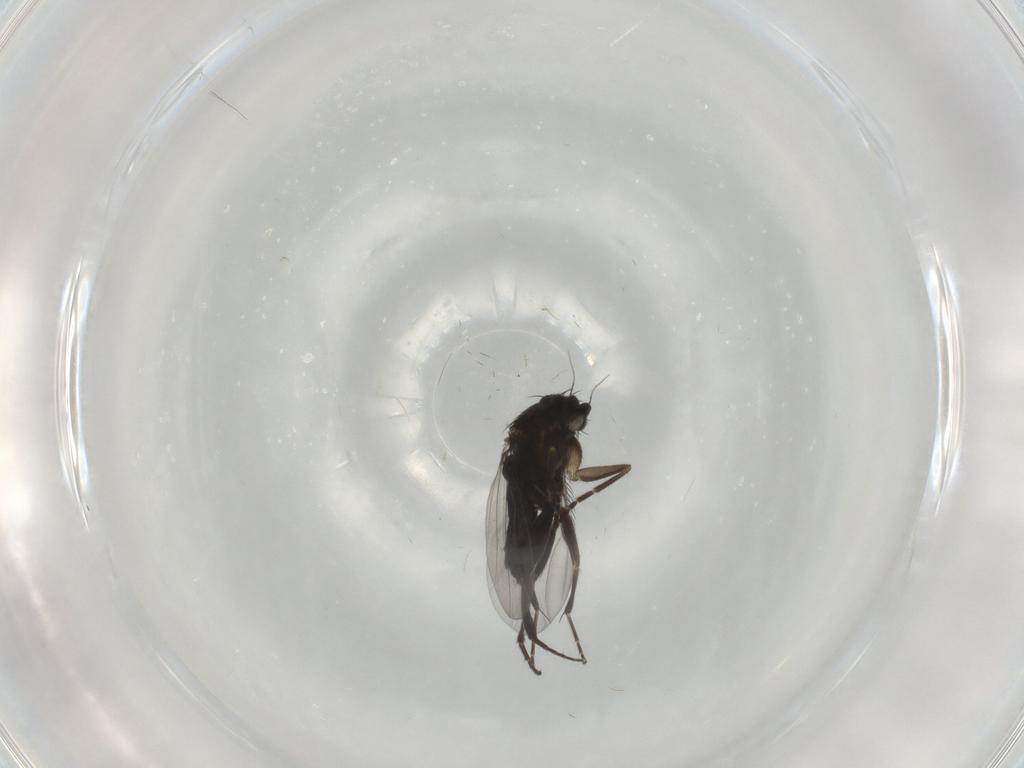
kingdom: Animalia
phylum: Arthropoda
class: Insecta
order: Diptera
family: Phoridae
